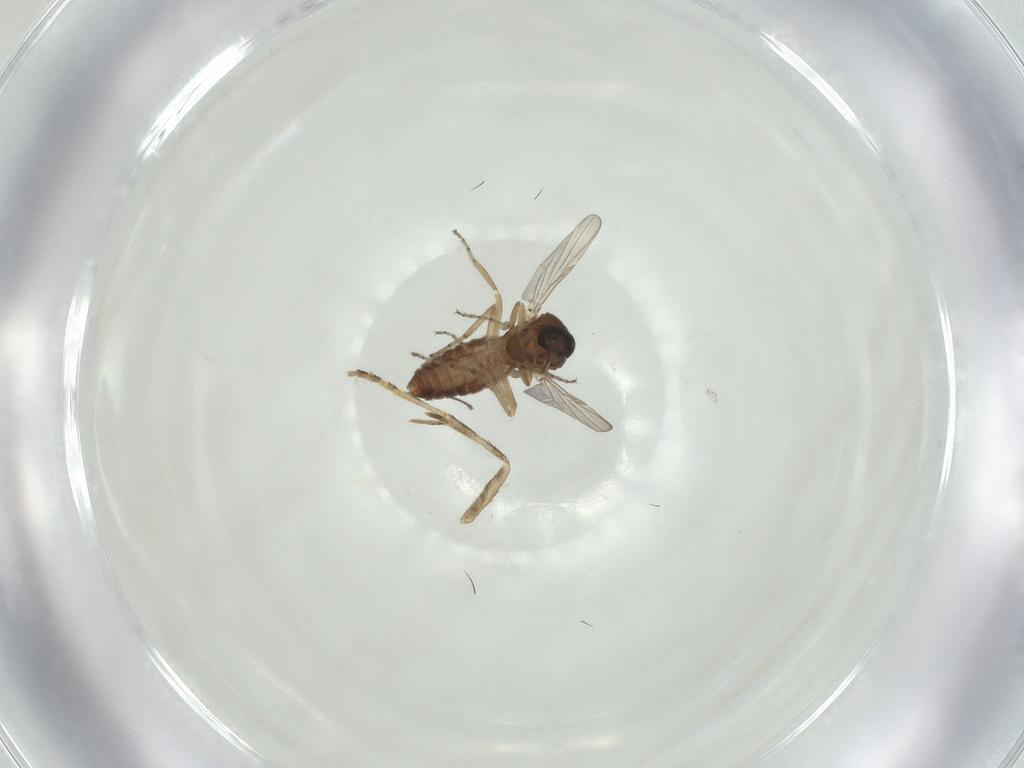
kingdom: Animalia
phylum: Arthropoda
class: Insecta
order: Diptera
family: Ceratopogonidae
